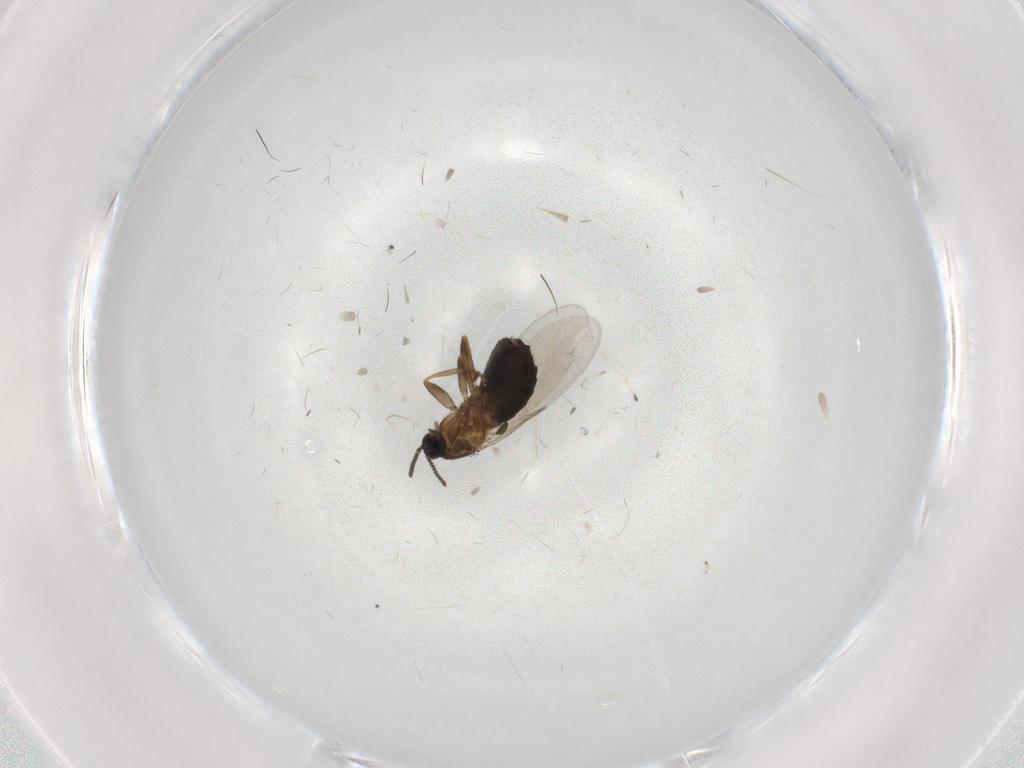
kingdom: Animalia
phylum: Arthropoda
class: Insecta
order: Diptera
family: Scatopsidae
